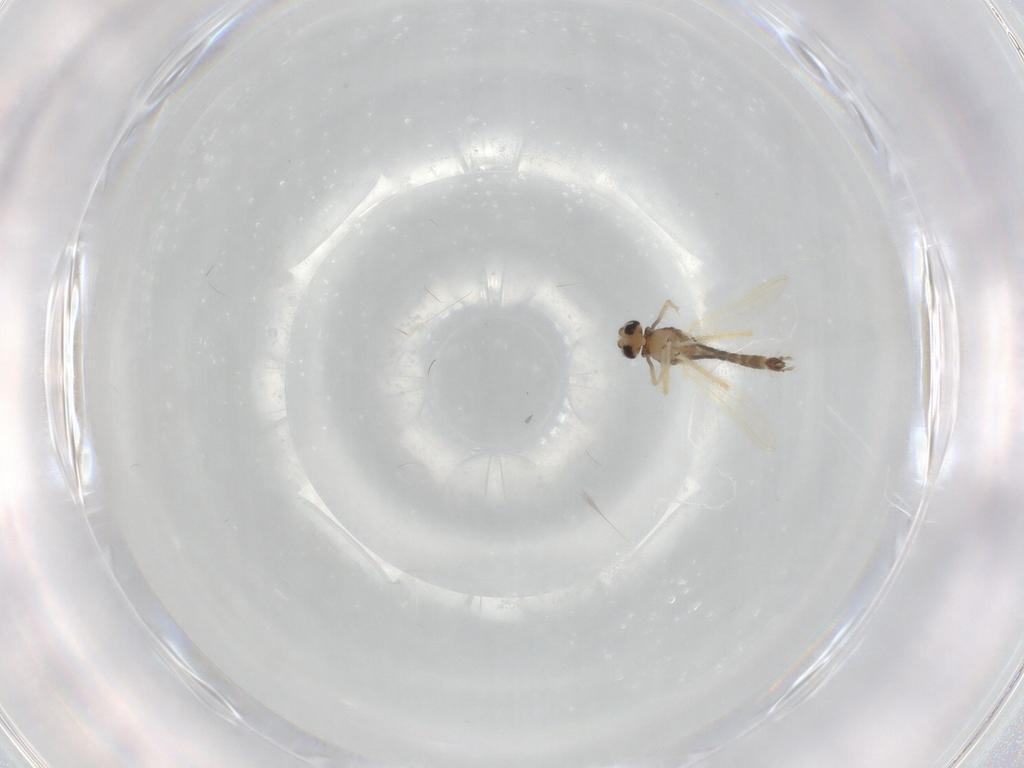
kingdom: Animalia
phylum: Arthropoda
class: Insecta
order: Diptera
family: Chironomidae
